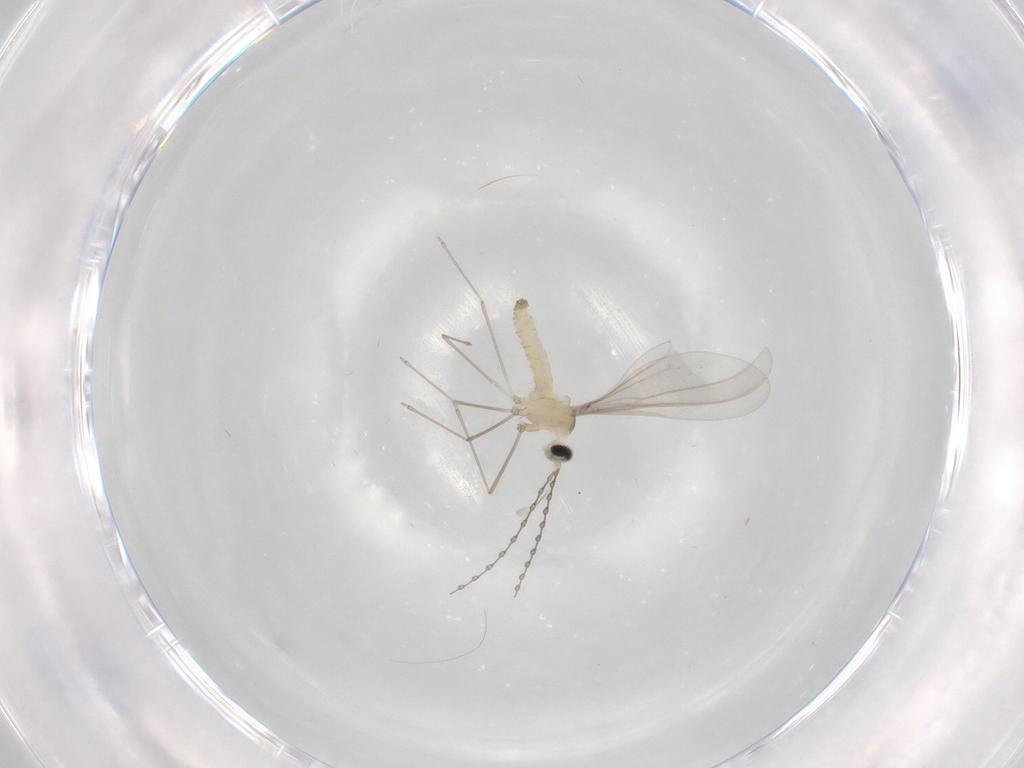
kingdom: Animalia
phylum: Arthropoda
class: Insecta
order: Diptera
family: Cecidomyiidae
